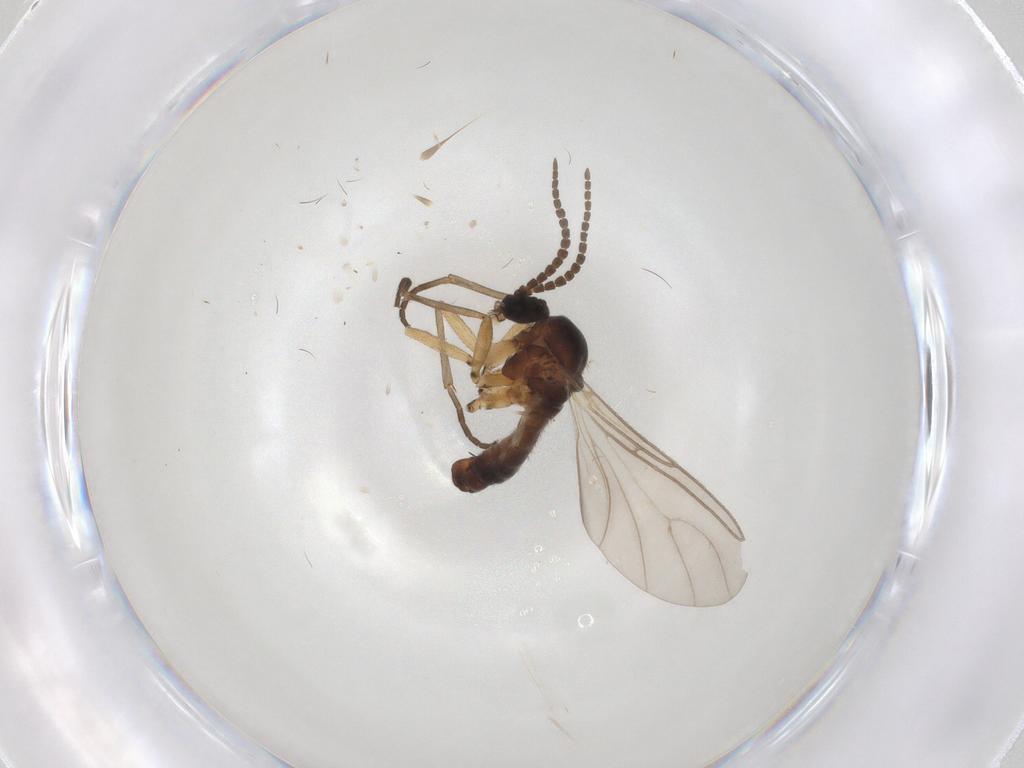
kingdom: Animalia
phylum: Arthropoda
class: Insecta
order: Diptera
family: Sciaridae
